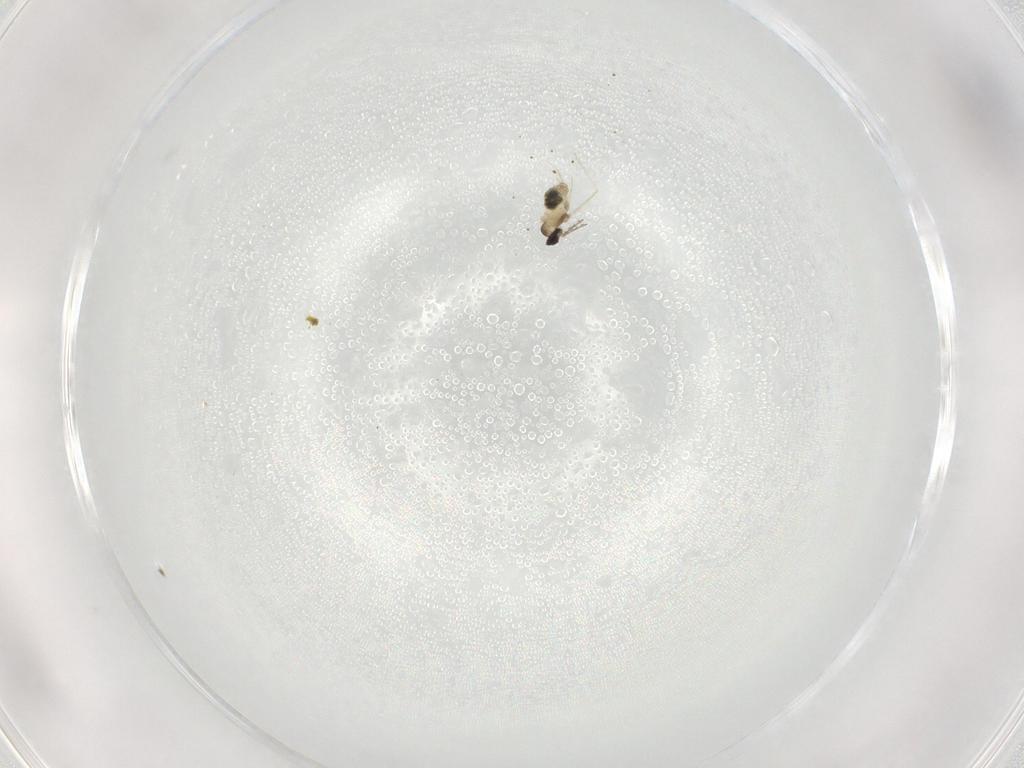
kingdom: Animalia
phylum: Arthropoda
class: Insecta
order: Diptera
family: Cecidomyiidae
